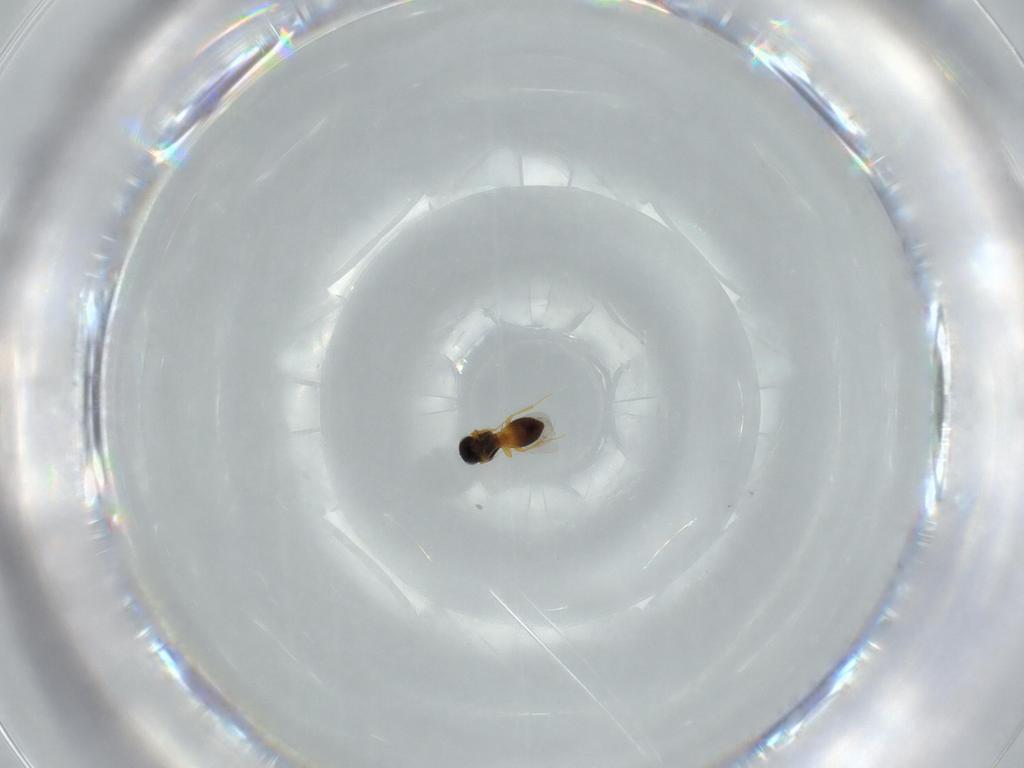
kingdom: Animalia
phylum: Arthropoda
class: Insecta
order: Hymenoptera
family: Platygastridae
